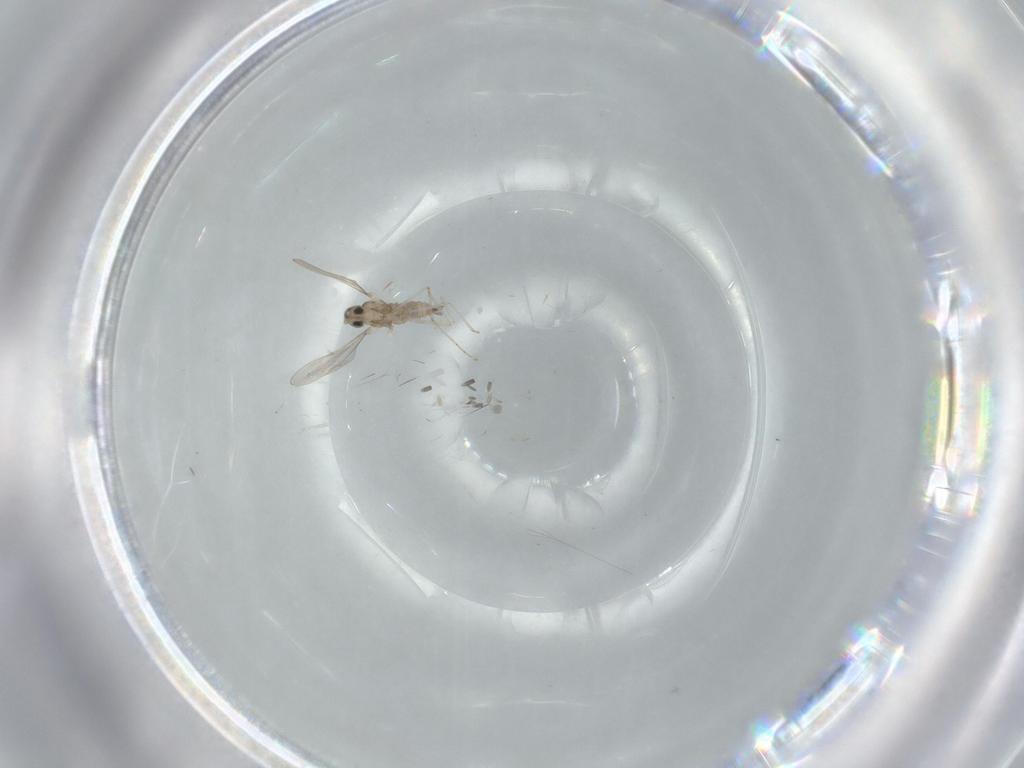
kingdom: Animalia
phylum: Arthropoda
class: Insecta
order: Diptera
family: Cecidomyiidae
